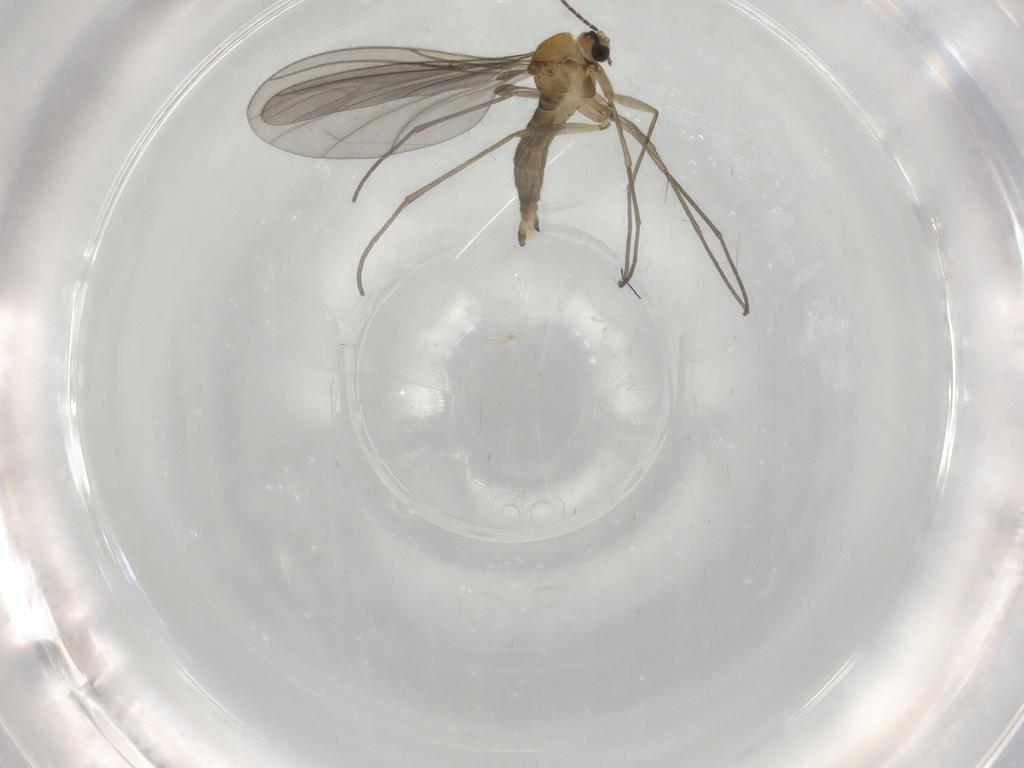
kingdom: Animalia
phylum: Arthropoda
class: Insecta
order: Diptera
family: Sciaridae
